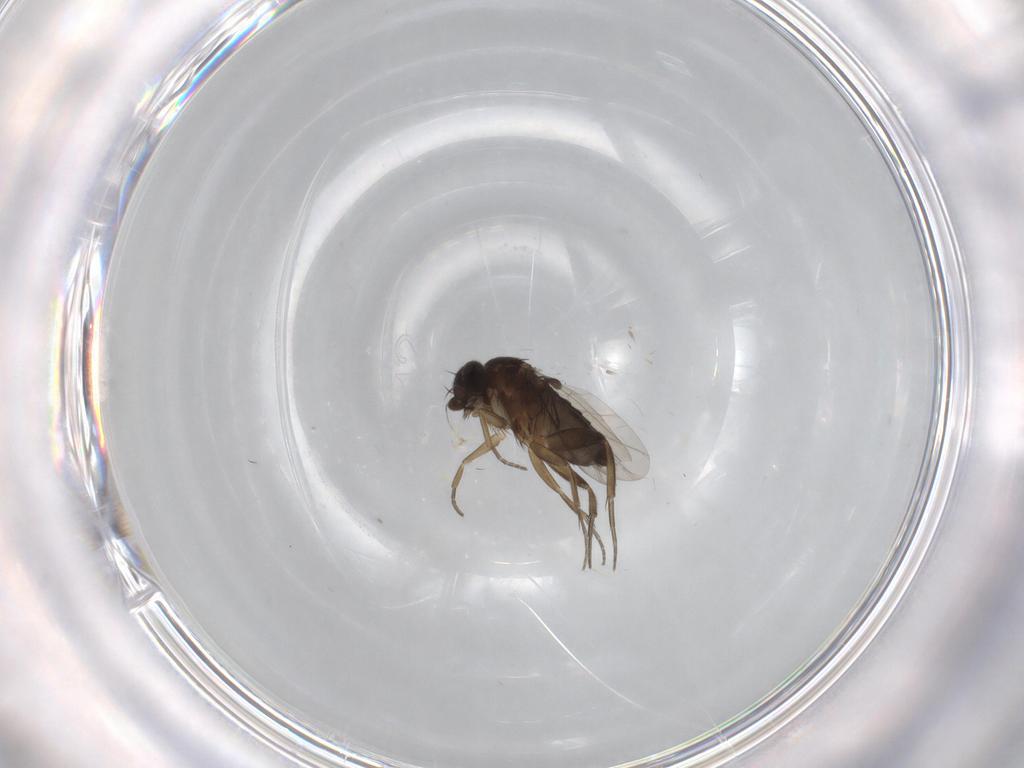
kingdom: Animalia
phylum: Arthropoda
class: Insecta
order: Diptera
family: Phoridae
